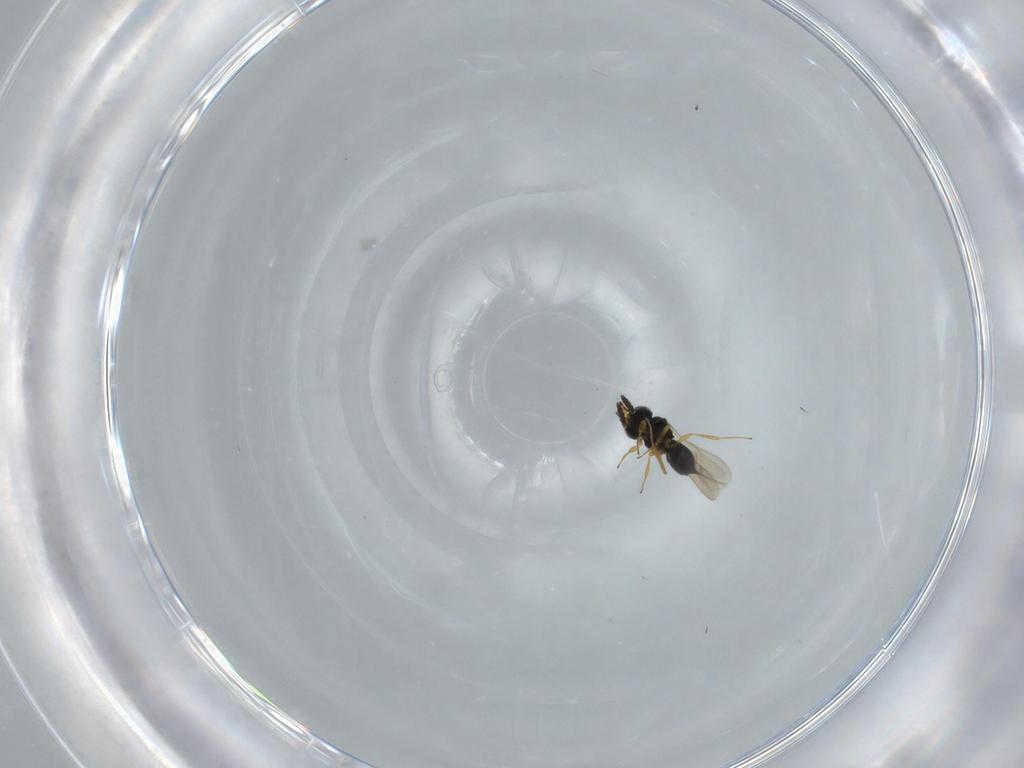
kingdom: Animalia
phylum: Arthropoda
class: Insecta
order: Hymenoptera
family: Scelionidae
